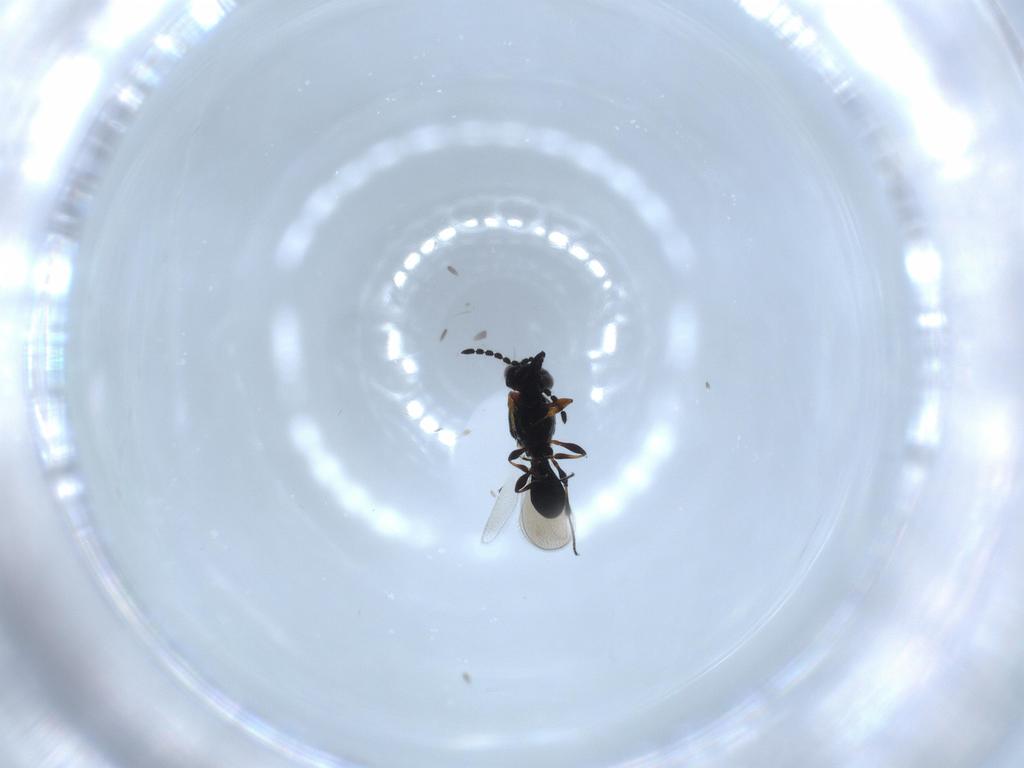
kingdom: Animalia
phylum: Arthropoda
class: Insecta
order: Hymenoptera
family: Platygastridae
